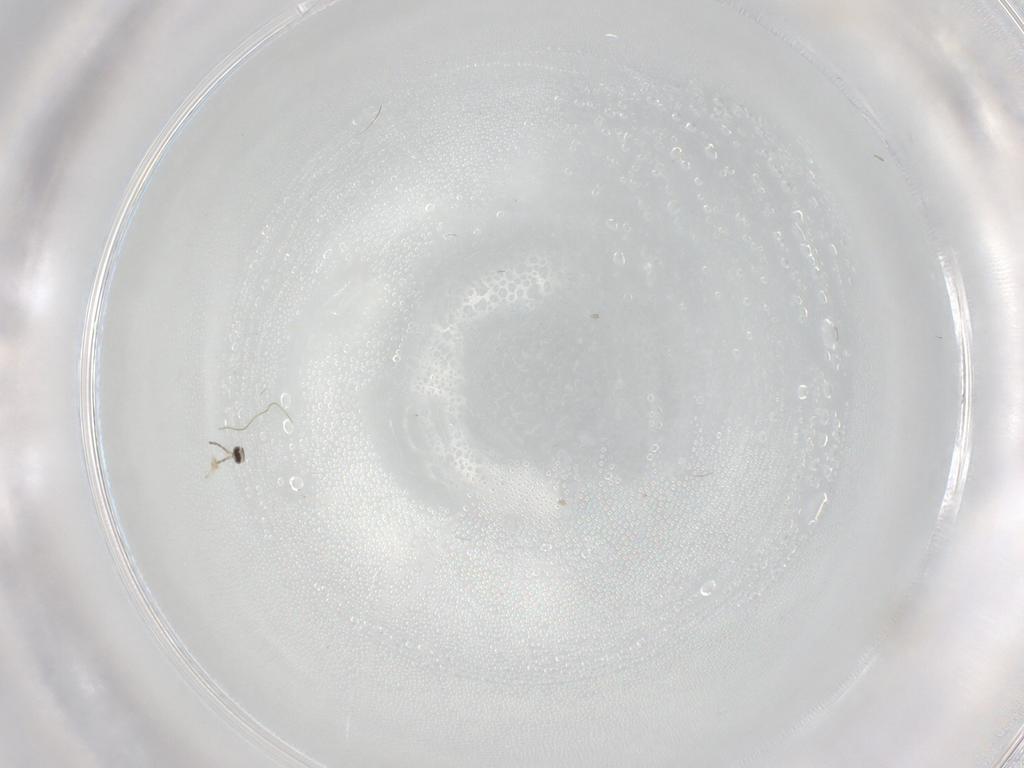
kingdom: Animalia
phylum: Arthropoda
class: Insecta
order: Diptera
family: Cecidomyiidae
